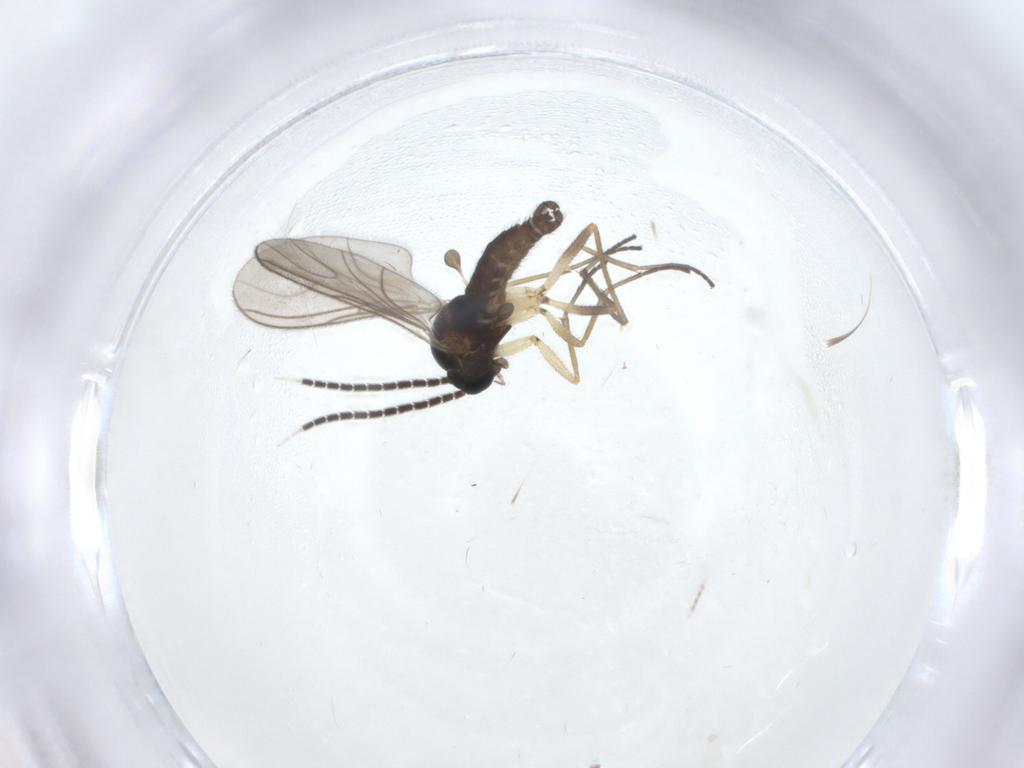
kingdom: Animalia
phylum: Arthropoda
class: Insecta
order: Diptera
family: Sciaridae
